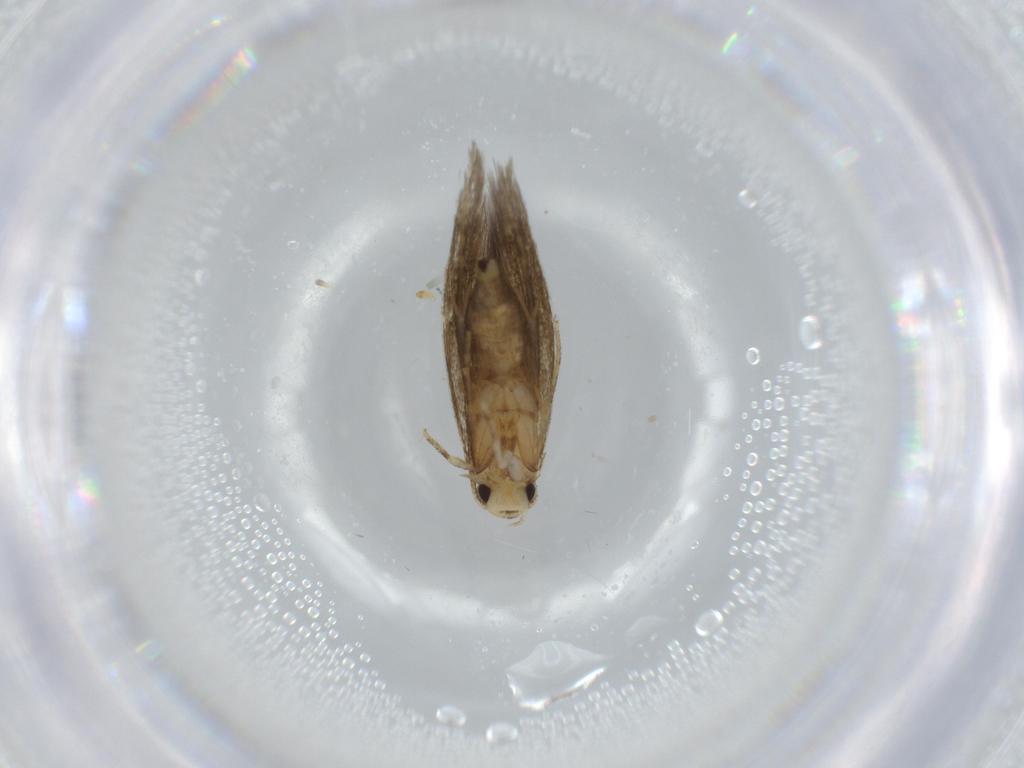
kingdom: Animalia
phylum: Arthropoda
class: Insecta
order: Lepidoptera
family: Tineidae
